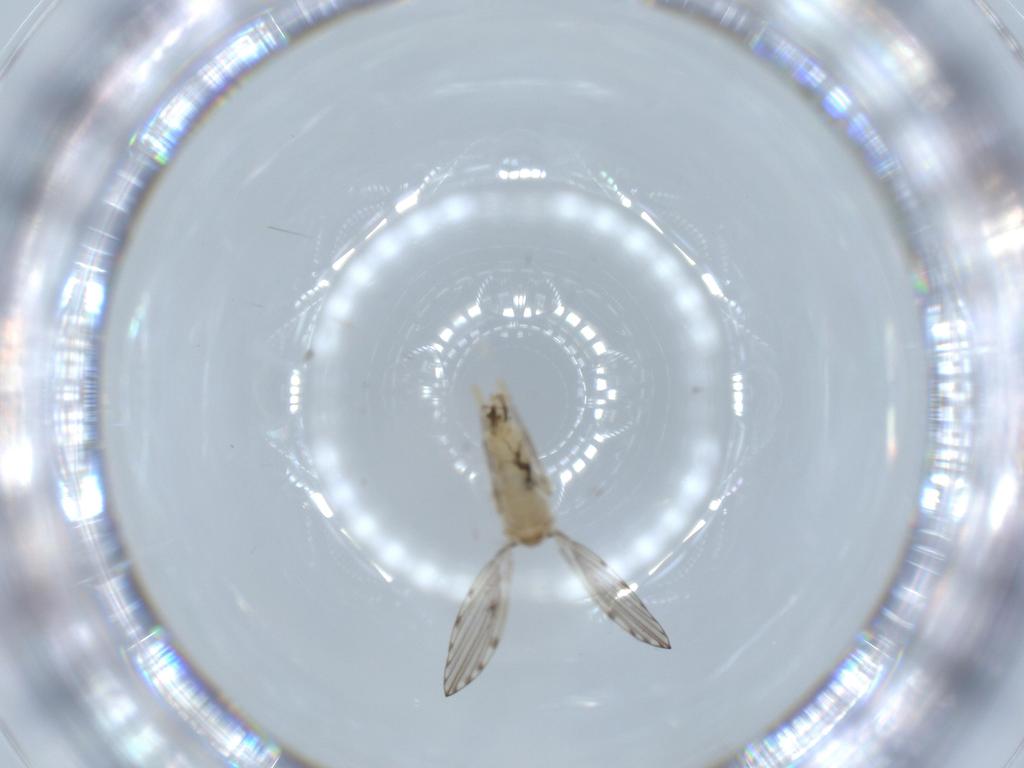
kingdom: Animalia
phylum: Arthropoda
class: Insecta
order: Diptera
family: Psychodidae
